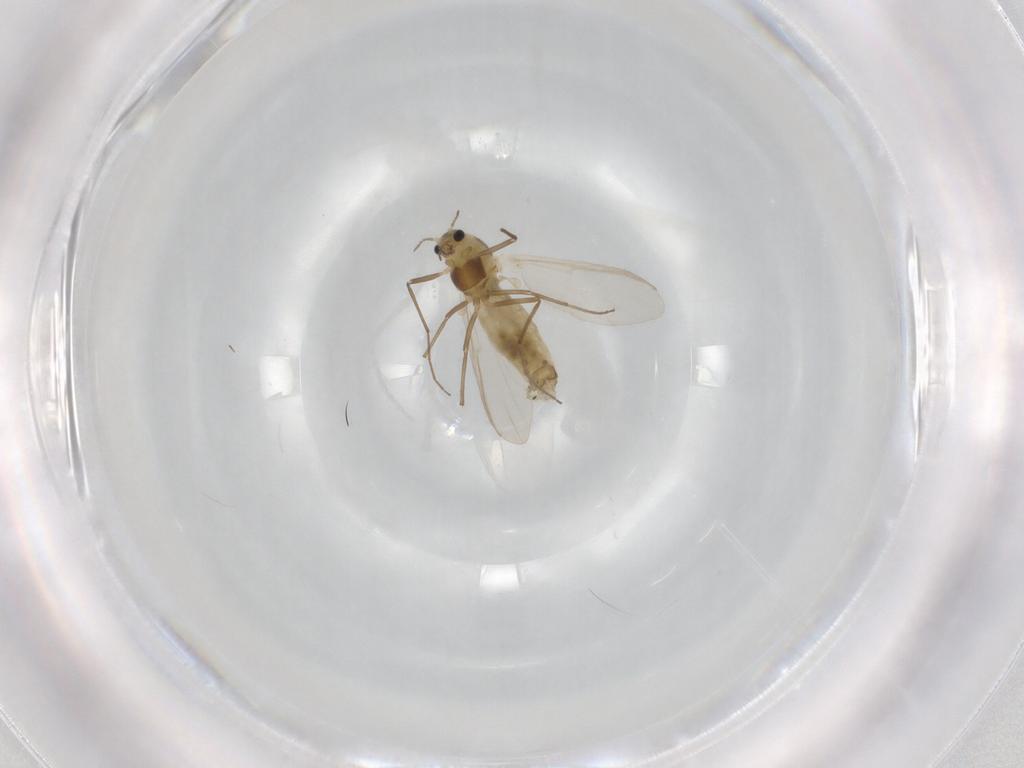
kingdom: Animalia
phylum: Arthropoda
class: Insecta
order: Diptera
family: Chironomidae
